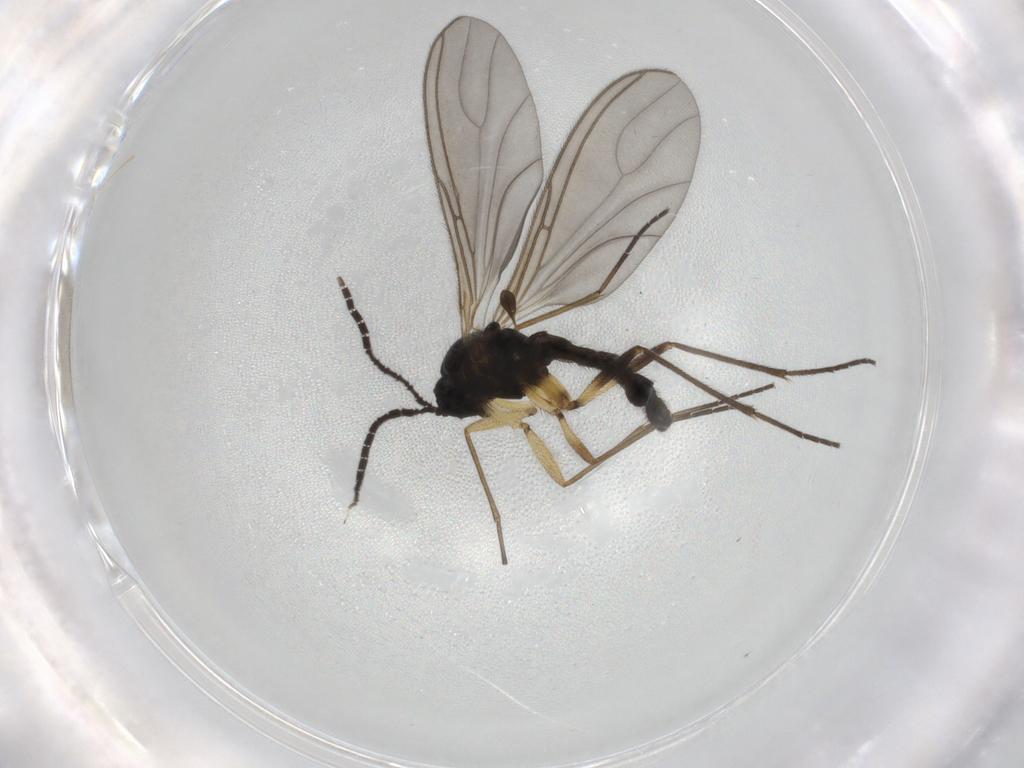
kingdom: Animalia
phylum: Arthropoda
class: Insecta
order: Diptera
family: Sciaridae
